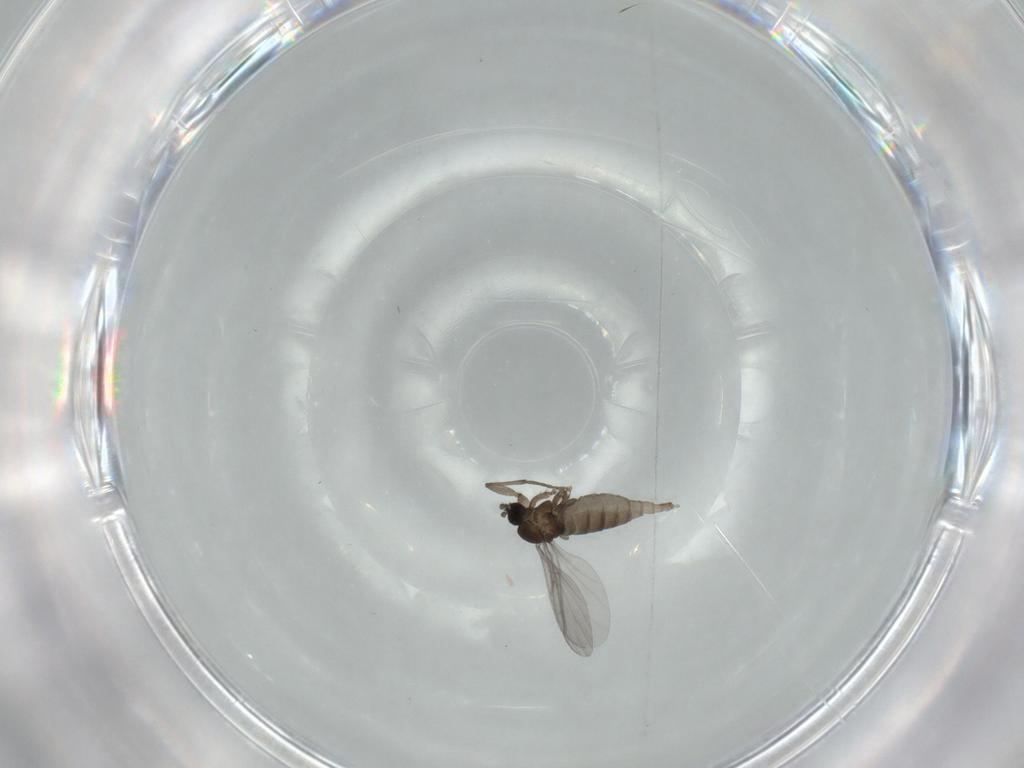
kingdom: Animalia
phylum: Arthropoda
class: Insecta
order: Diptera
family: Sciaridae
